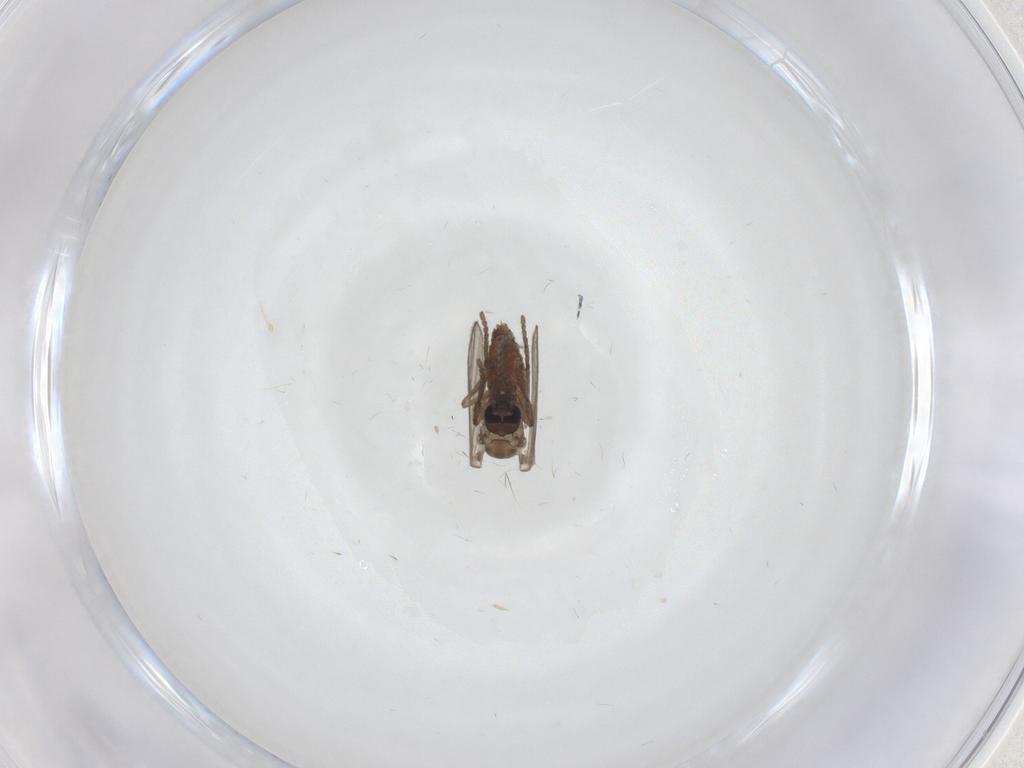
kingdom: Animalia
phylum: Arthropoda
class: Insecta
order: Diptera
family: Psychodidae
